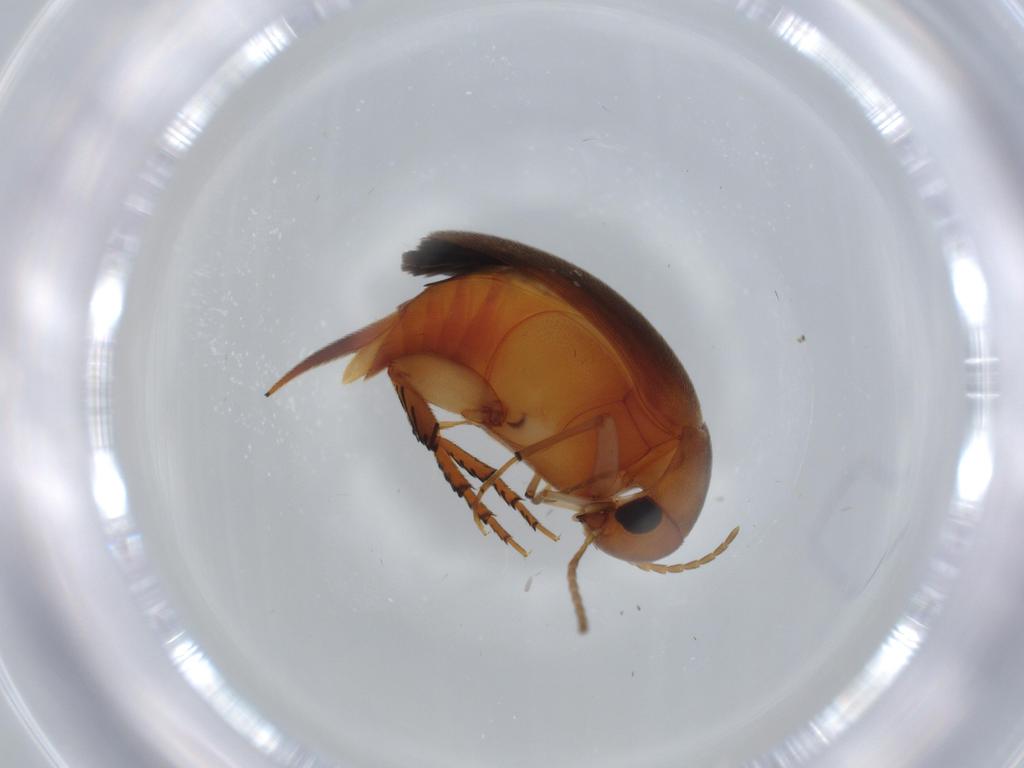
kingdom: Animalia
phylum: Arthropoda
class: Insecta
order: Coleoptera
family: Mordellidae
